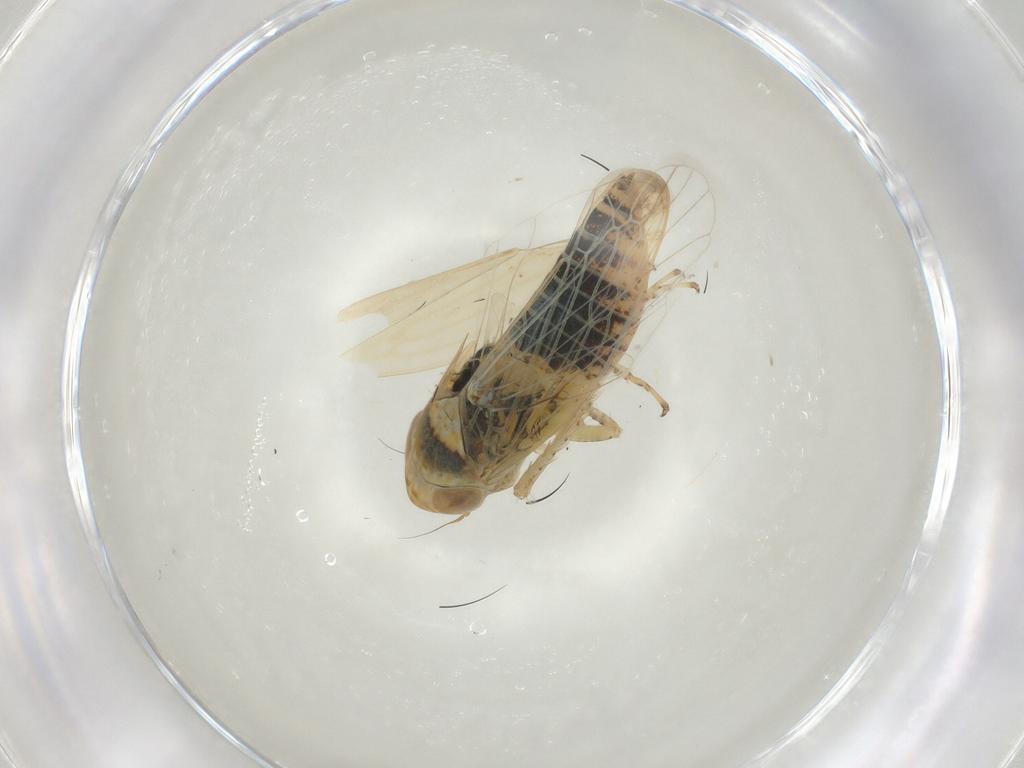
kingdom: Animalia
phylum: Arthropoda
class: Insecta
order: Hemiptera
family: Cicadellidae
